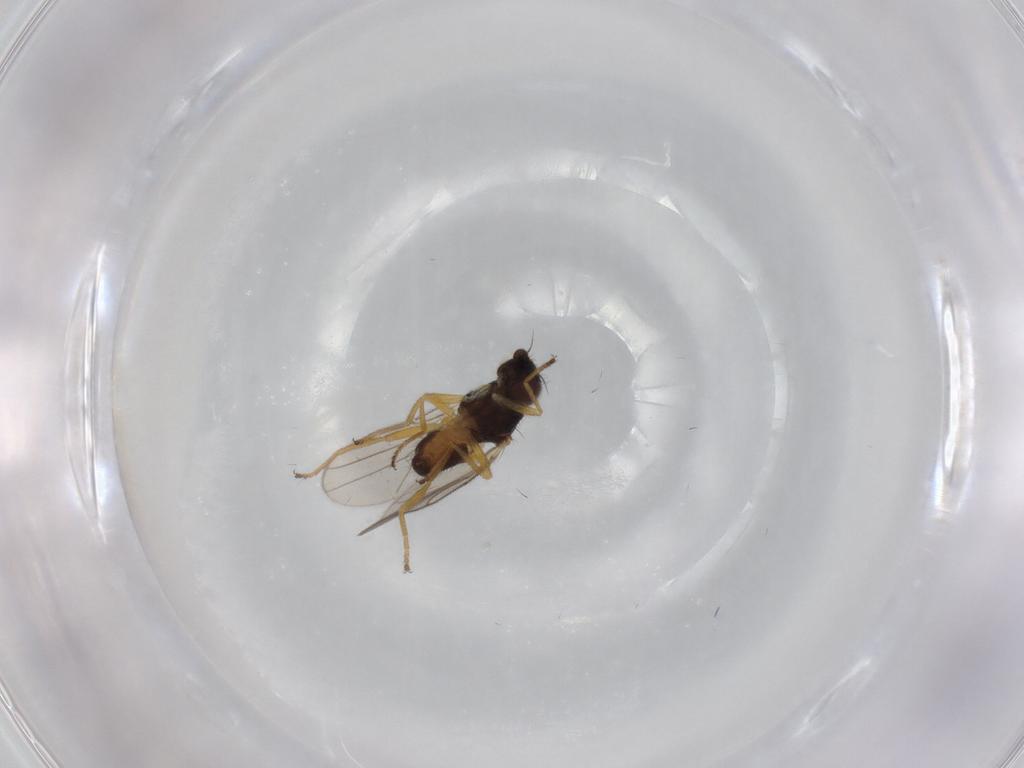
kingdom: Animalia
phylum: Arthropoda
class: Insecta
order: Diptera
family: Chloropidae
